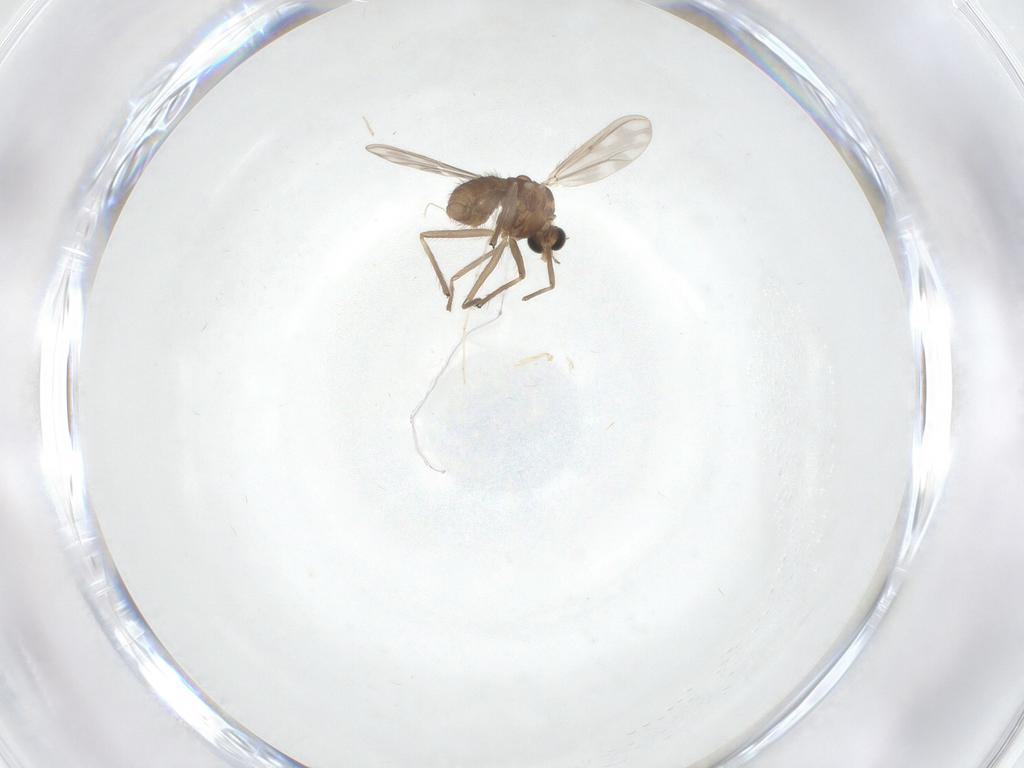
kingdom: Animalia
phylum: Arthropoda
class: Insecta
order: Diptera
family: Chironomidae
